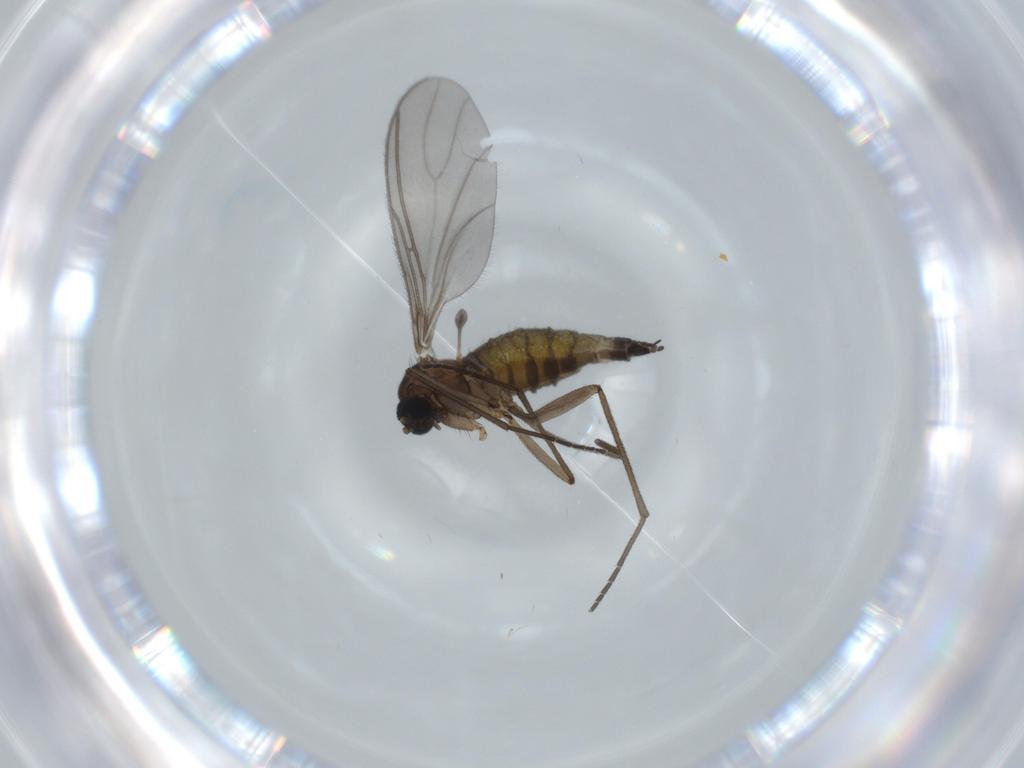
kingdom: Animalia
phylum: Arthropoda
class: Insecta
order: Diptera
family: Sciaridae
